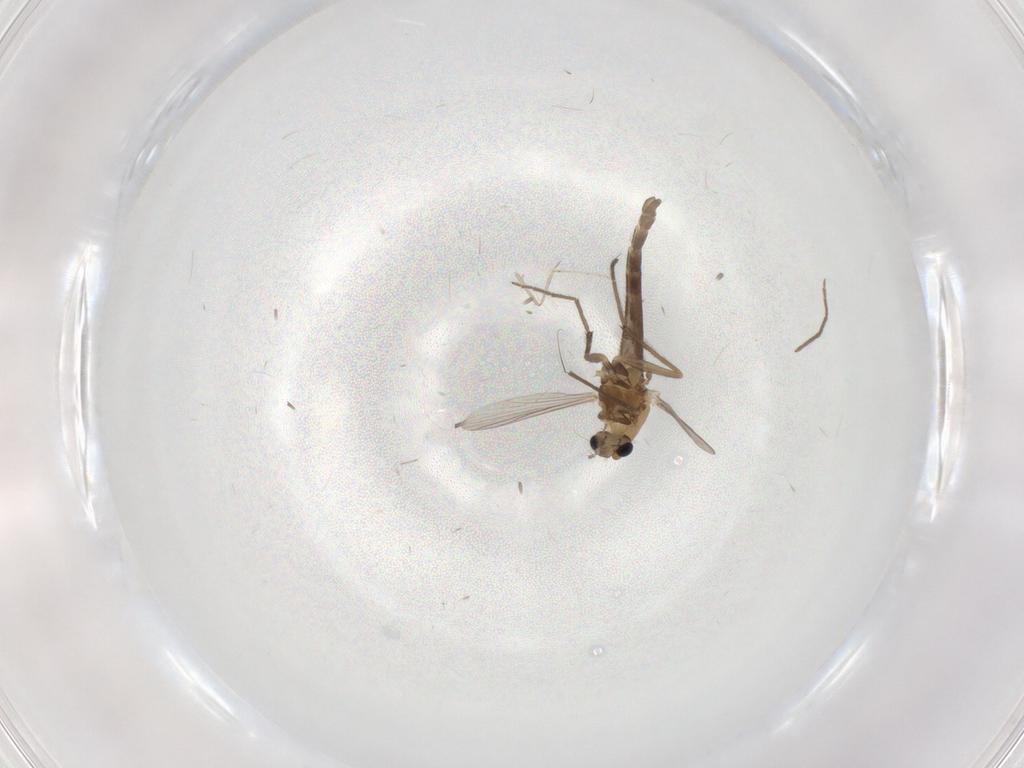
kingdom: Animalia
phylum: Arthropoda
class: Insecta
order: Diptera
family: Chironomidae
